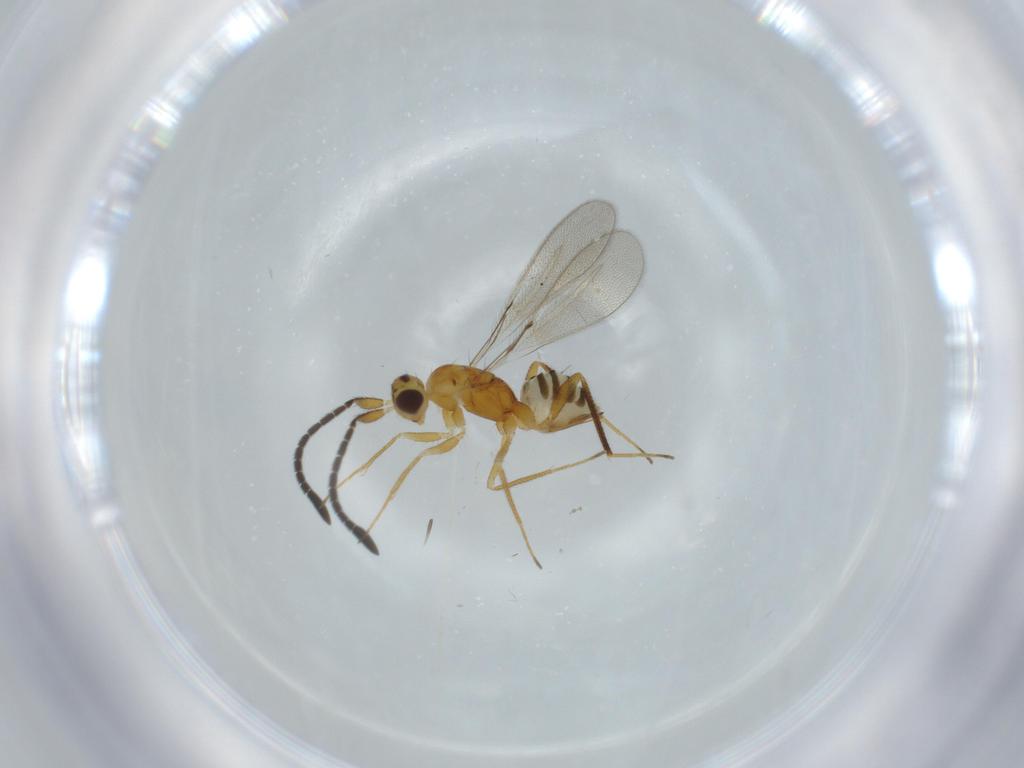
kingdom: Animalia
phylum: Arthropoda
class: Insecta
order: Hymenoptera
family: Mymaridae
